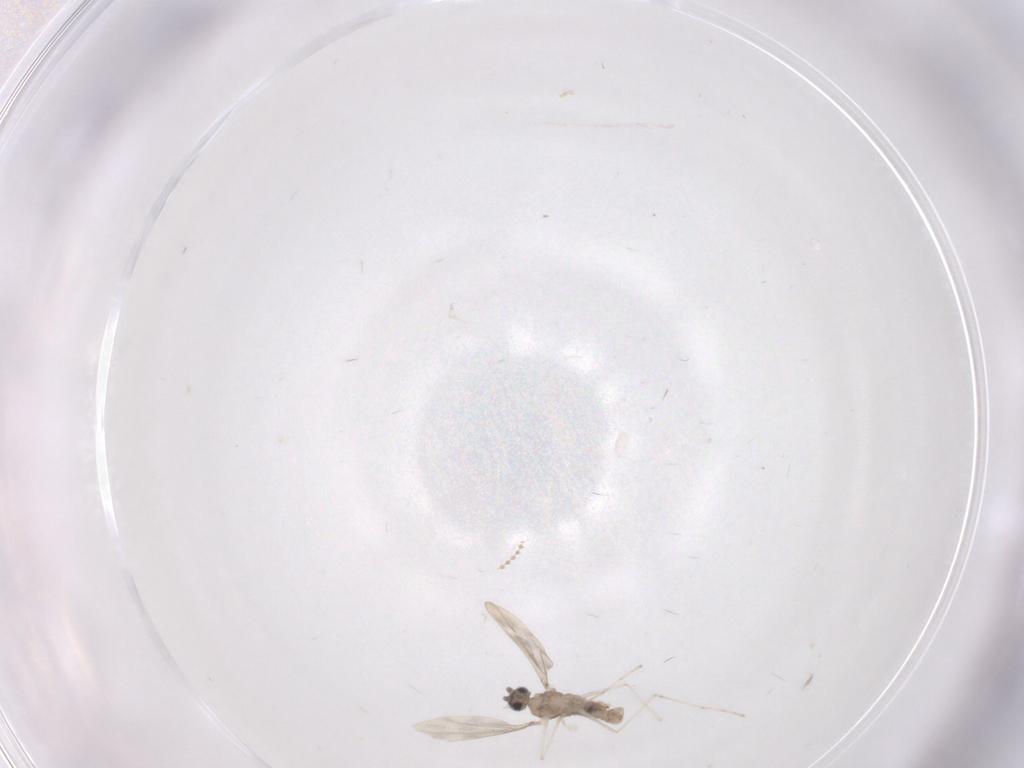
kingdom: Animalia
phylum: Arthropoda
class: Insecta
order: Diptera
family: Cecidomyiidae
